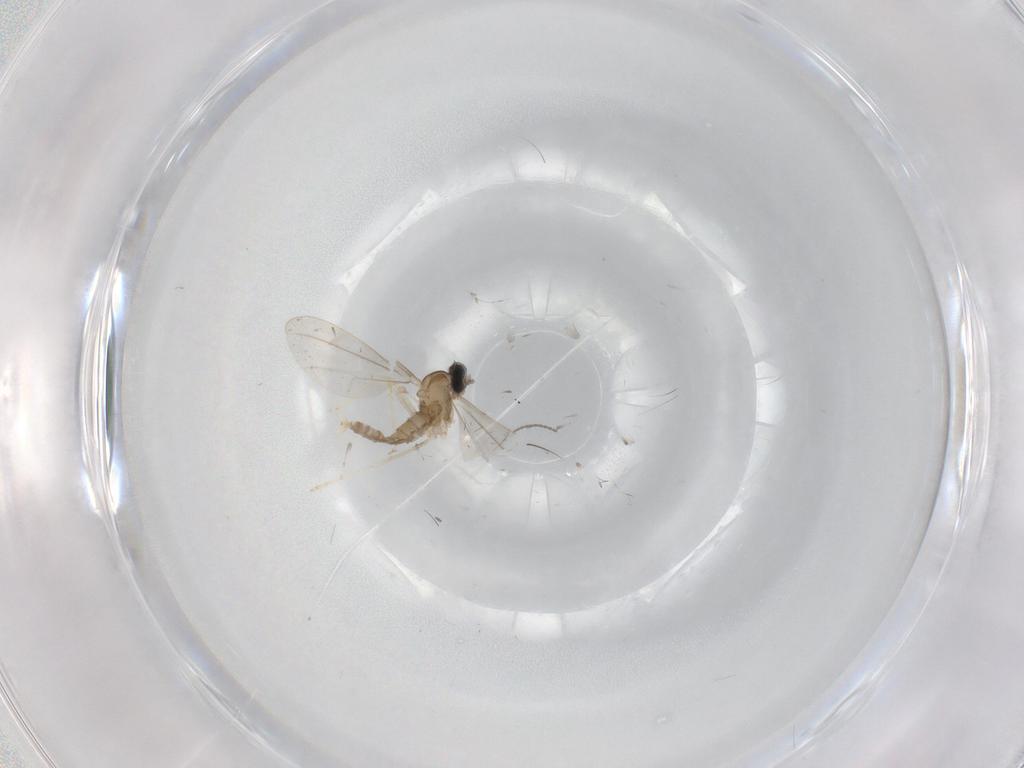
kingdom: Animalia
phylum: Arthropoda
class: Insecta
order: Diptera
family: Cecidomyiidae
